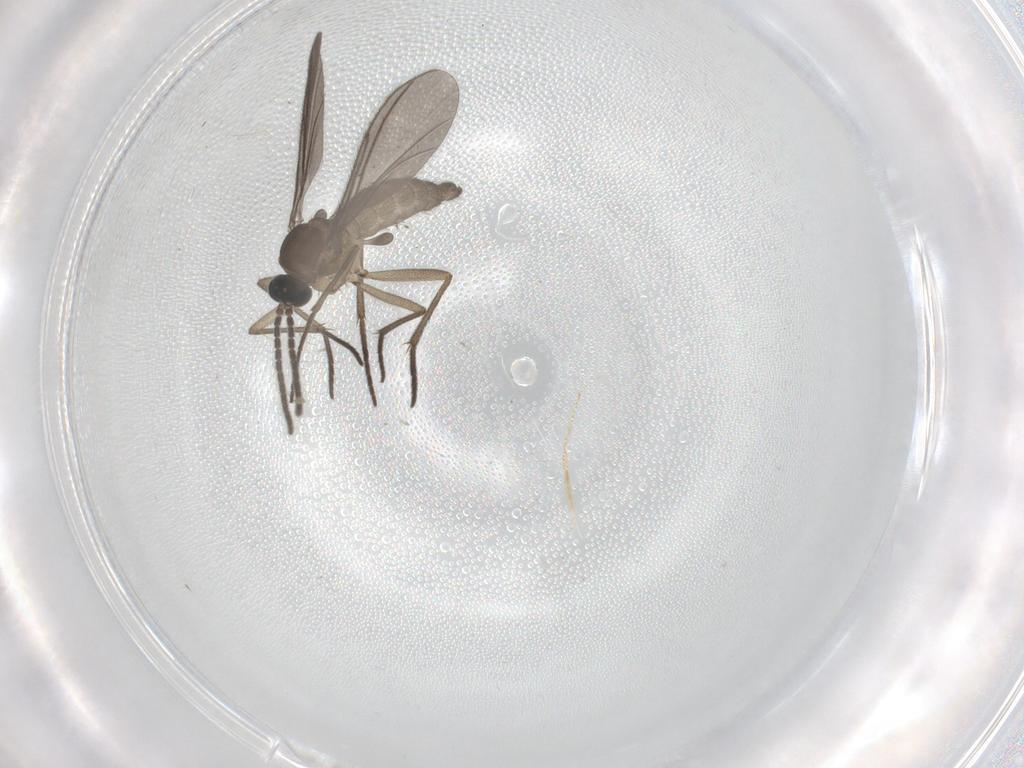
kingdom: Animalia
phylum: Arthropoda
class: Insecta
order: Diptera
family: Sciaridae
